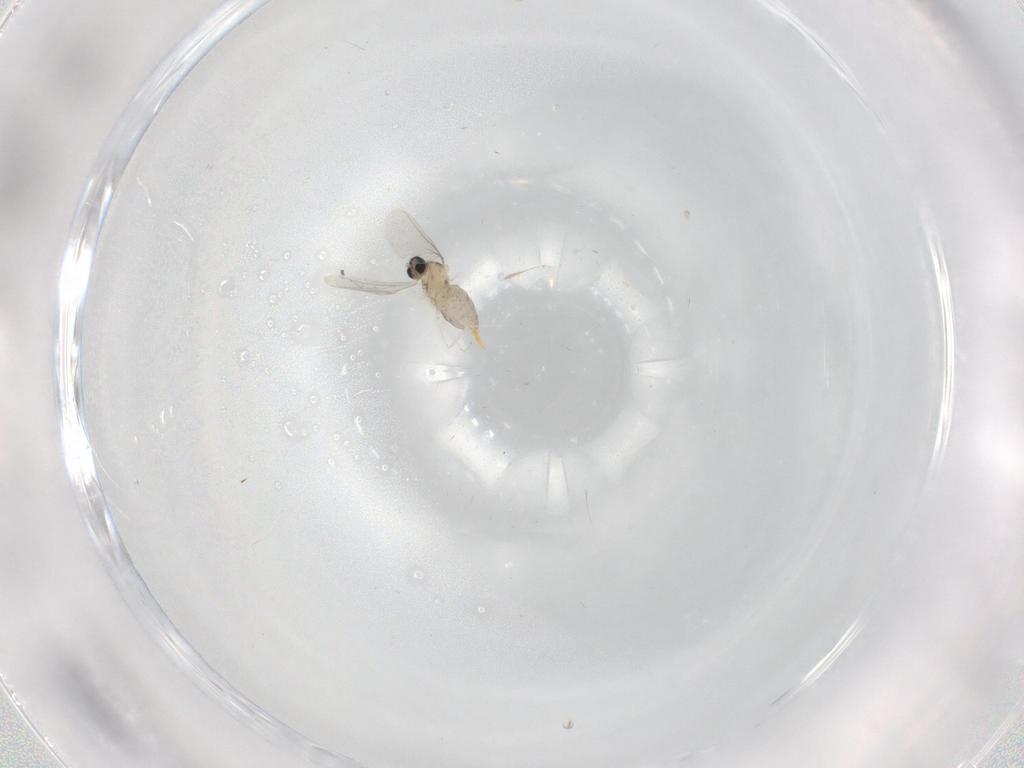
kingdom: Animalia
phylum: Arthropoda
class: Insecta
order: Diptera
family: Cecidomyiidae
